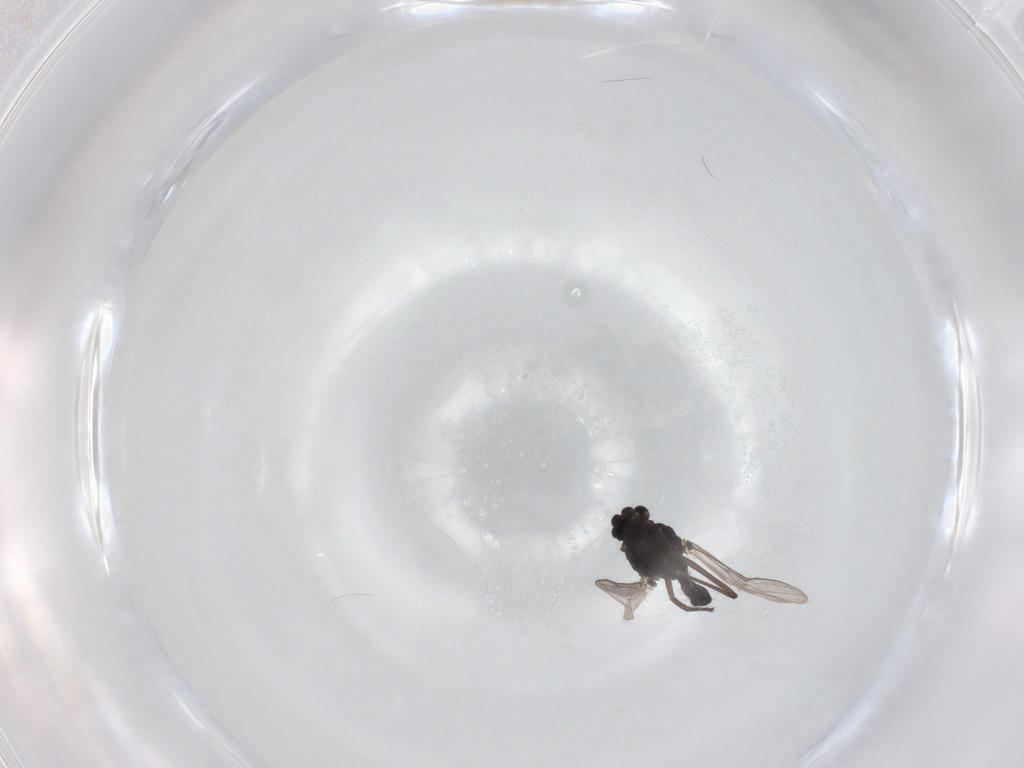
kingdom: Animalia
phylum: Arthropoda
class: Insecta
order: Diptera
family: Chironomidae
